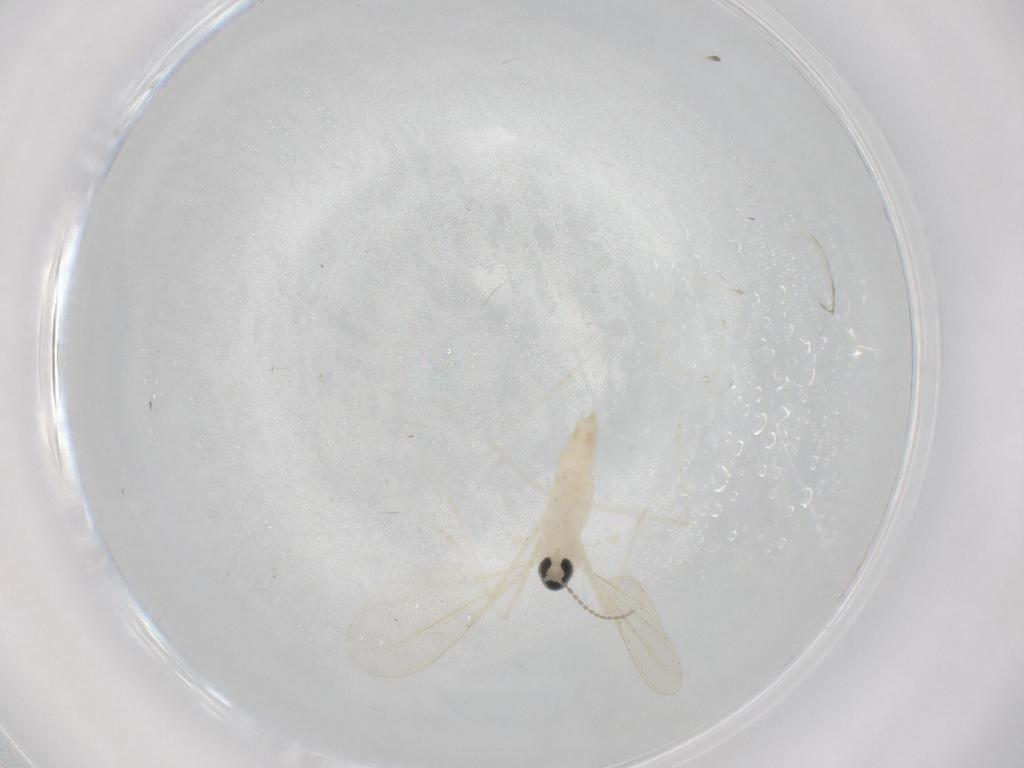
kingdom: Animalia
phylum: Arthropoda
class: Insecta
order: Diptera
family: Cecidomyiidae
